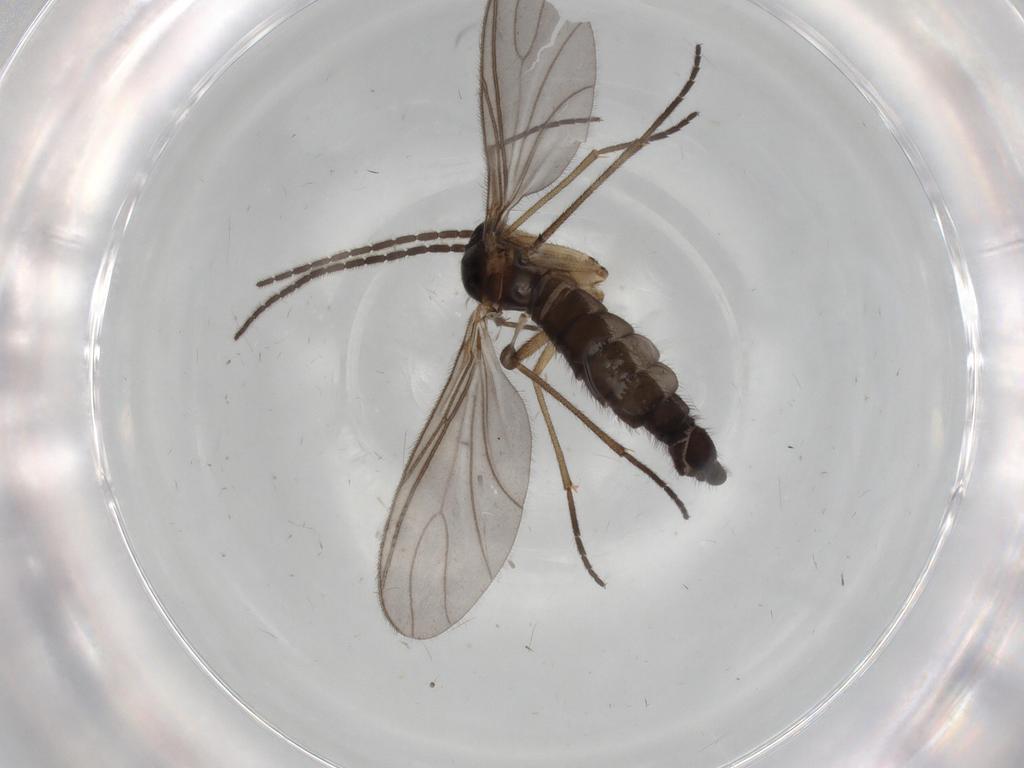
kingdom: Animalia
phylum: Arthropoda
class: Insecta
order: Diptera
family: Sciaridae
